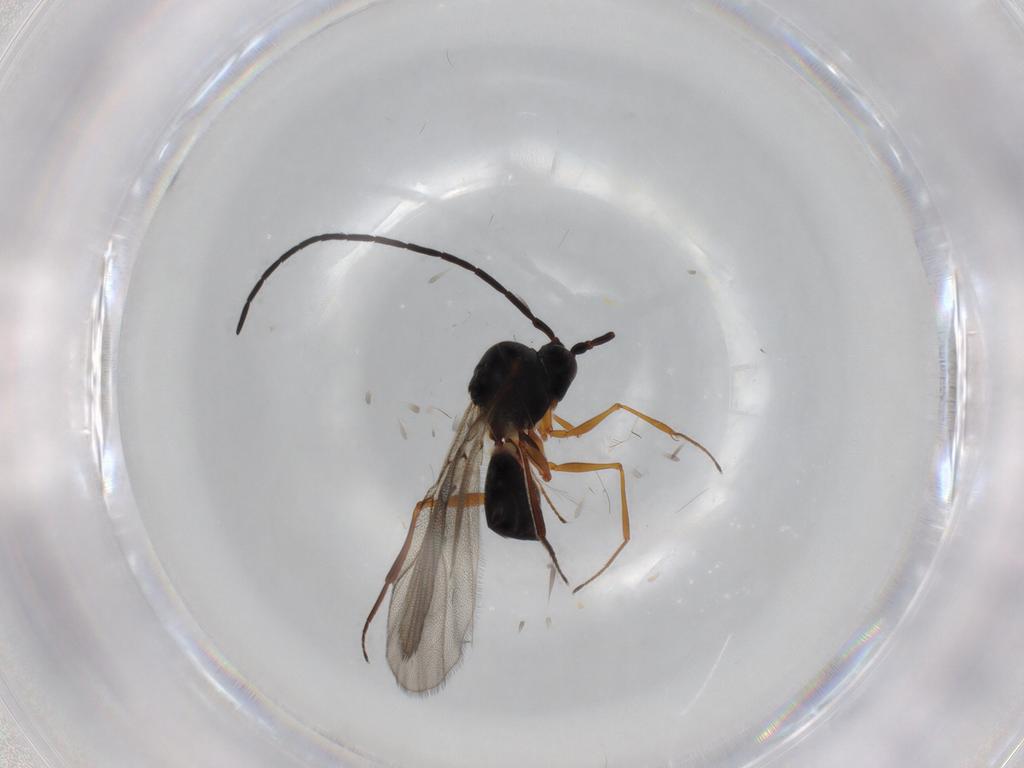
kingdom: Animalia
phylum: Arthropoda
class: Insecta
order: Hymenoptera
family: Figitidae
